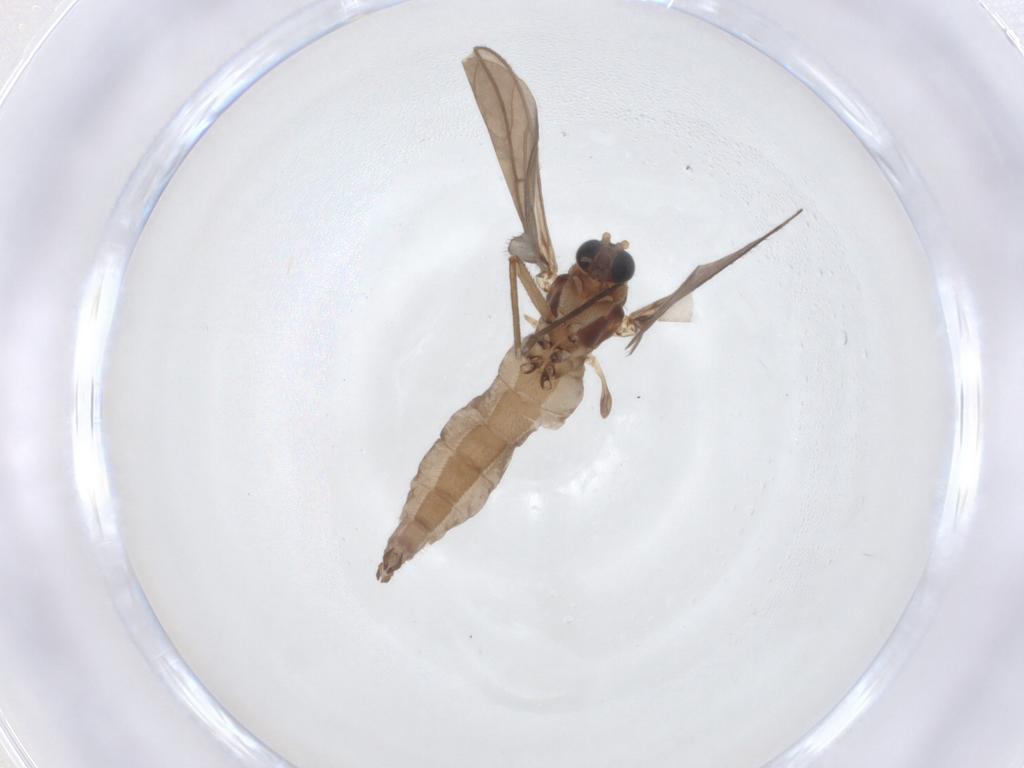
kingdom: Animalia
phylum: Arthropoda
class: Insecta
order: Diptera
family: Sciaridae
